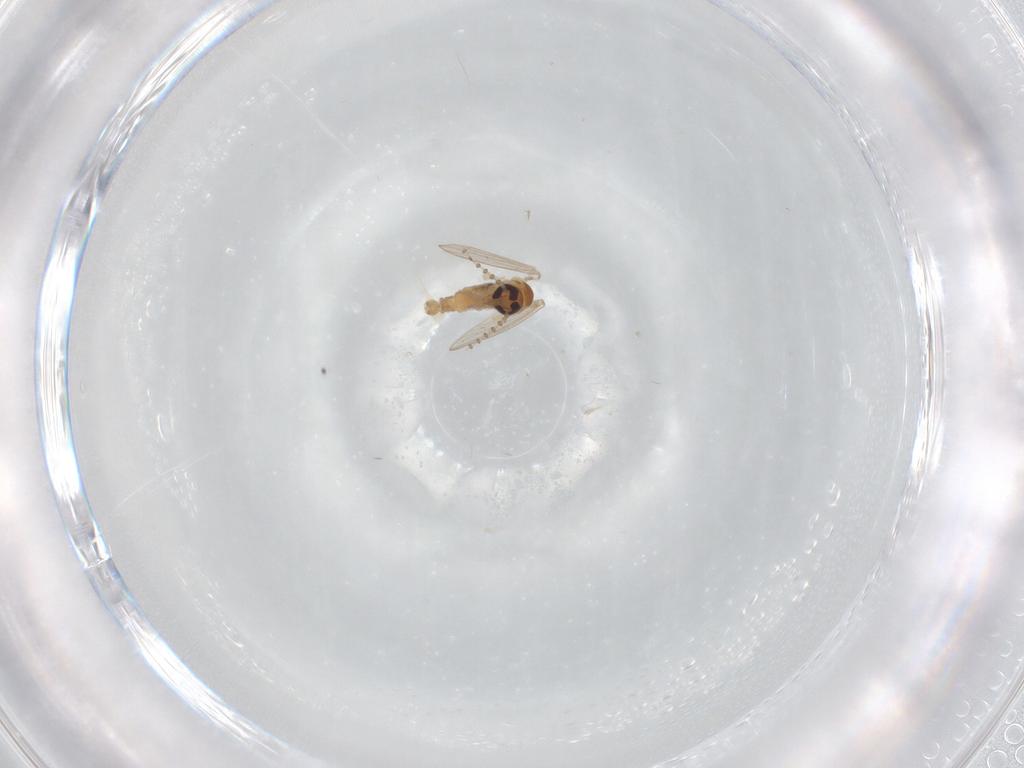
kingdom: Animalia
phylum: Arthropoda
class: Insecta
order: Diptera
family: Psychodidae
